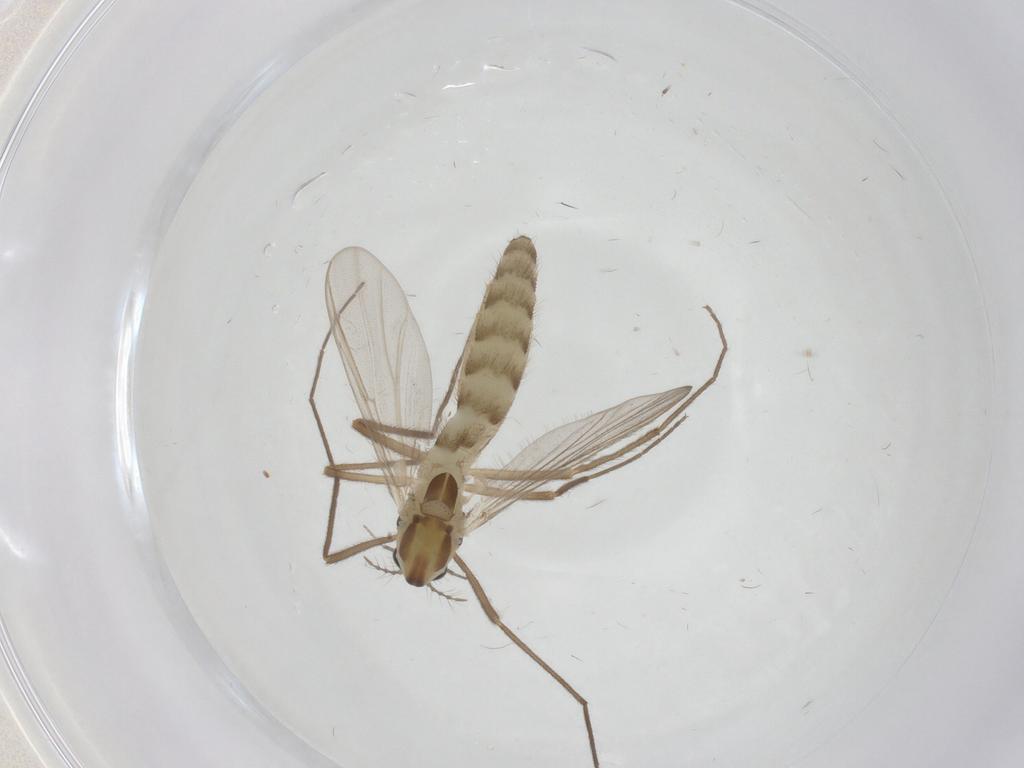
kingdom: Animalia
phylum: Arthropoda
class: Insecta
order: Diptera
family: Chironomidae
